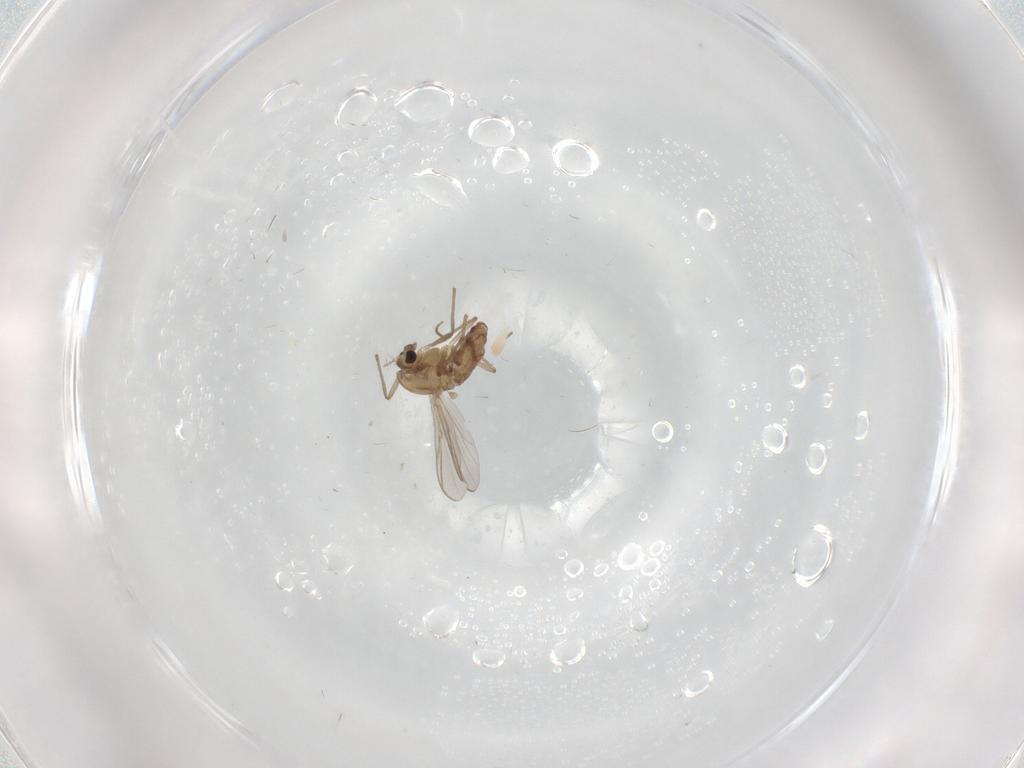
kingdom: Animalia
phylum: Arthropoda
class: Insecta
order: Diptera
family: Chironomidae
